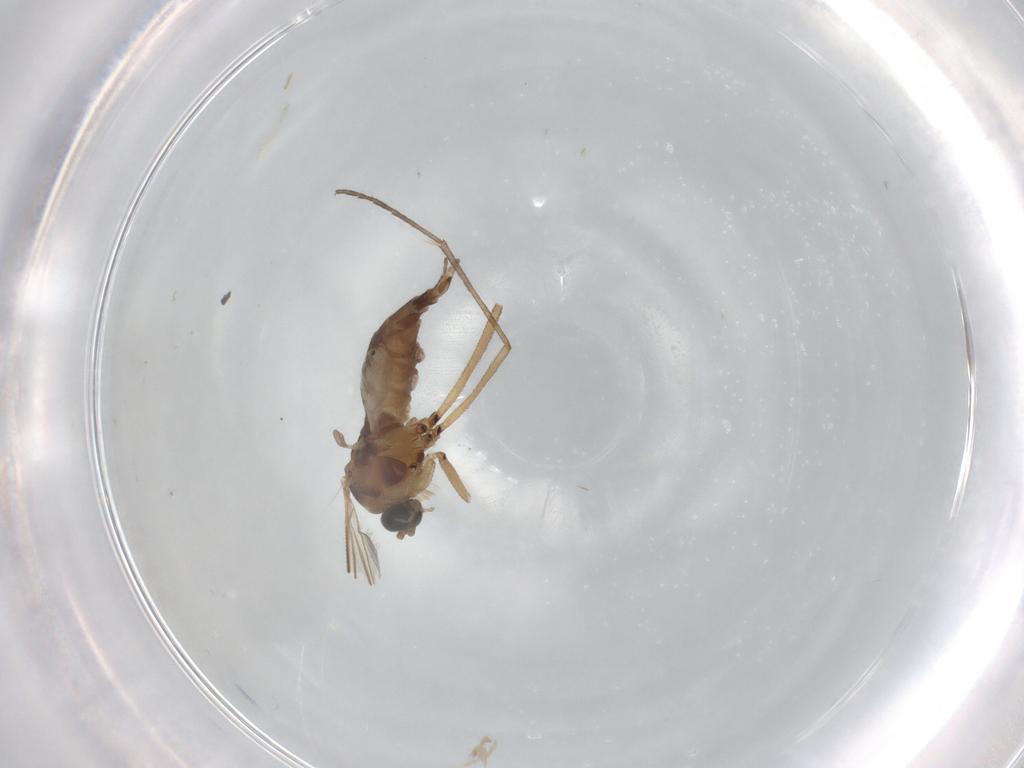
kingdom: Animalia
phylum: Arthropoda
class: Insecta
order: Diptera
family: Sciaridae
